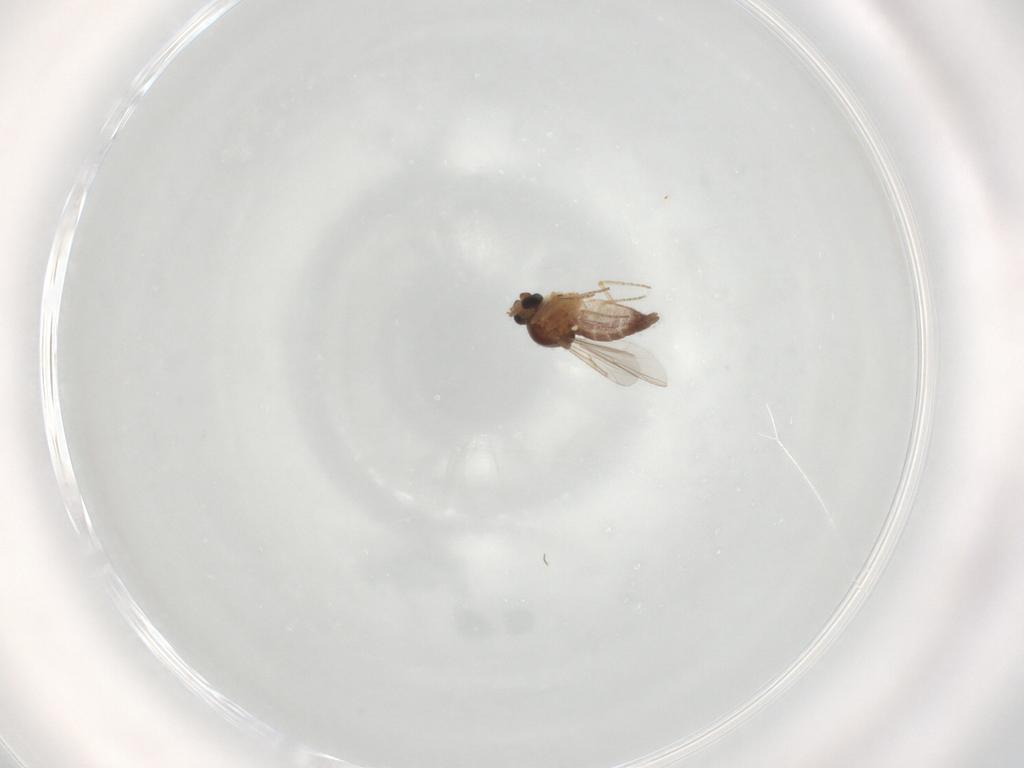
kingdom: Animalia
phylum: Arthropoda
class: Insecta
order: Diptera
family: Ceratopogonidae
